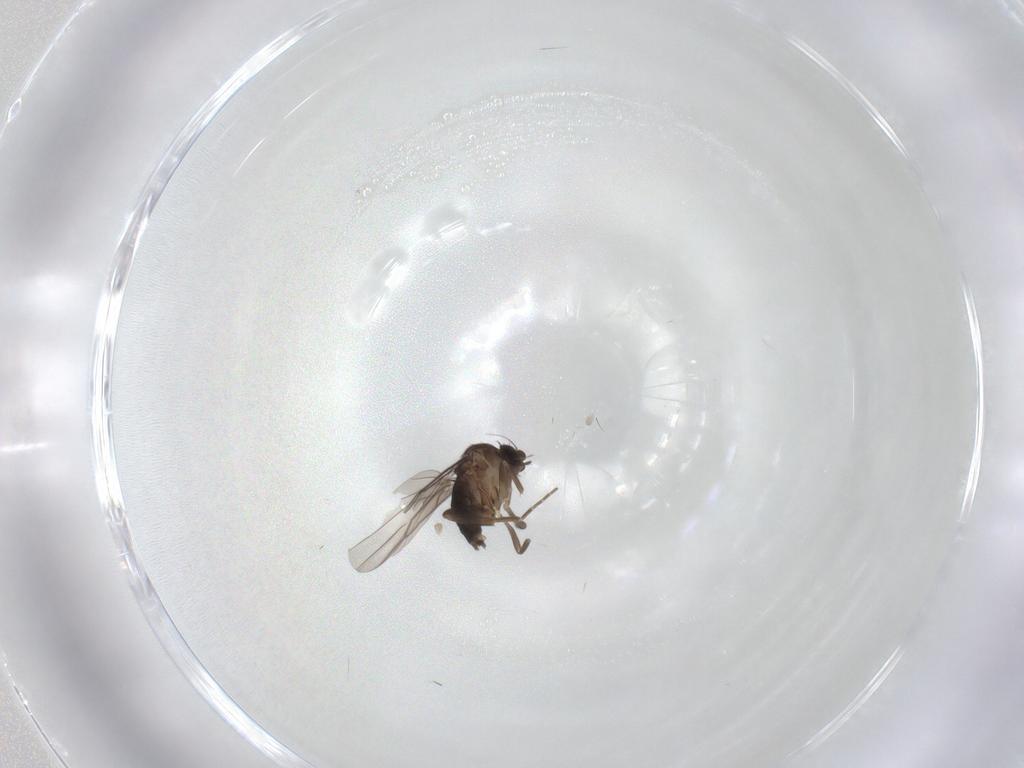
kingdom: Animalia
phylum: Arthropoda
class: Insecta
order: Diptera
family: Sciaridae
